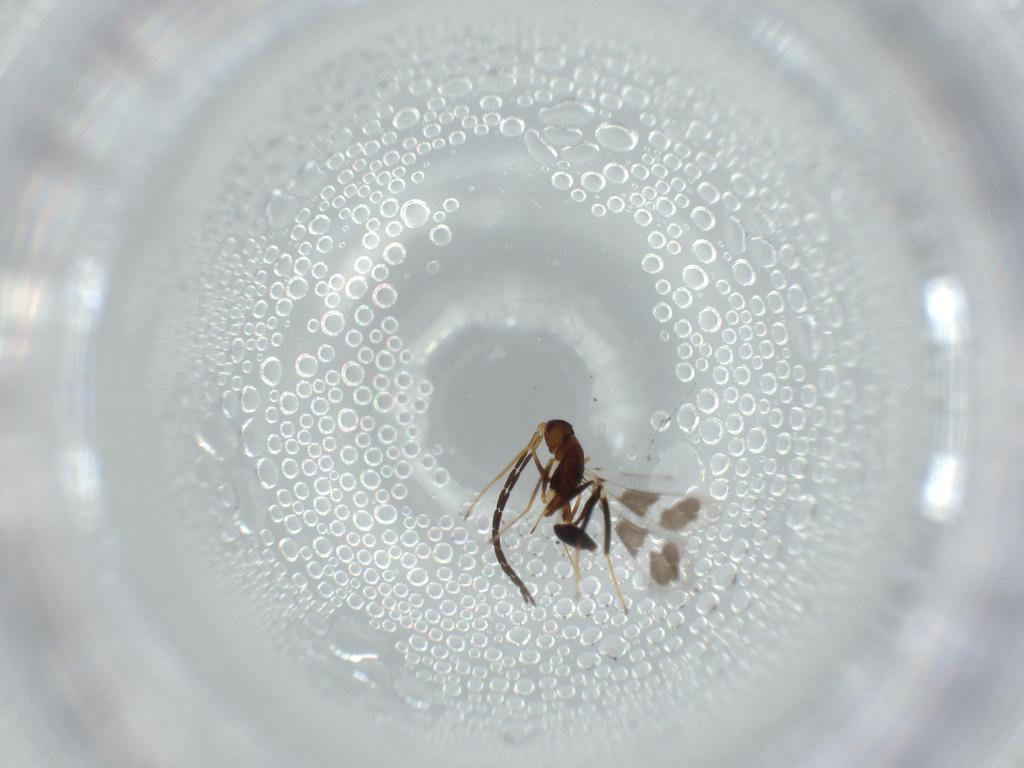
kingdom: Animalia
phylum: Arthropoda
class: Insecta
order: Hymenoptera
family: Mymaridae
